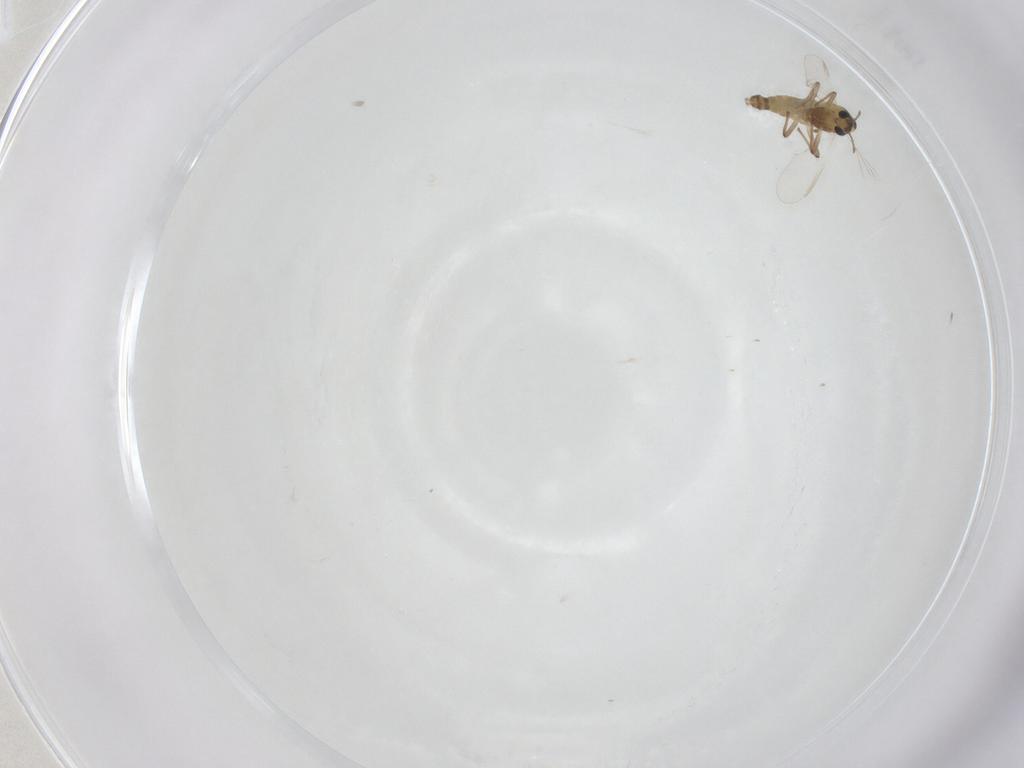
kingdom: Animalia
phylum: Arthropoda
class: Insecta
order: Diptera
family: Chironomidae
